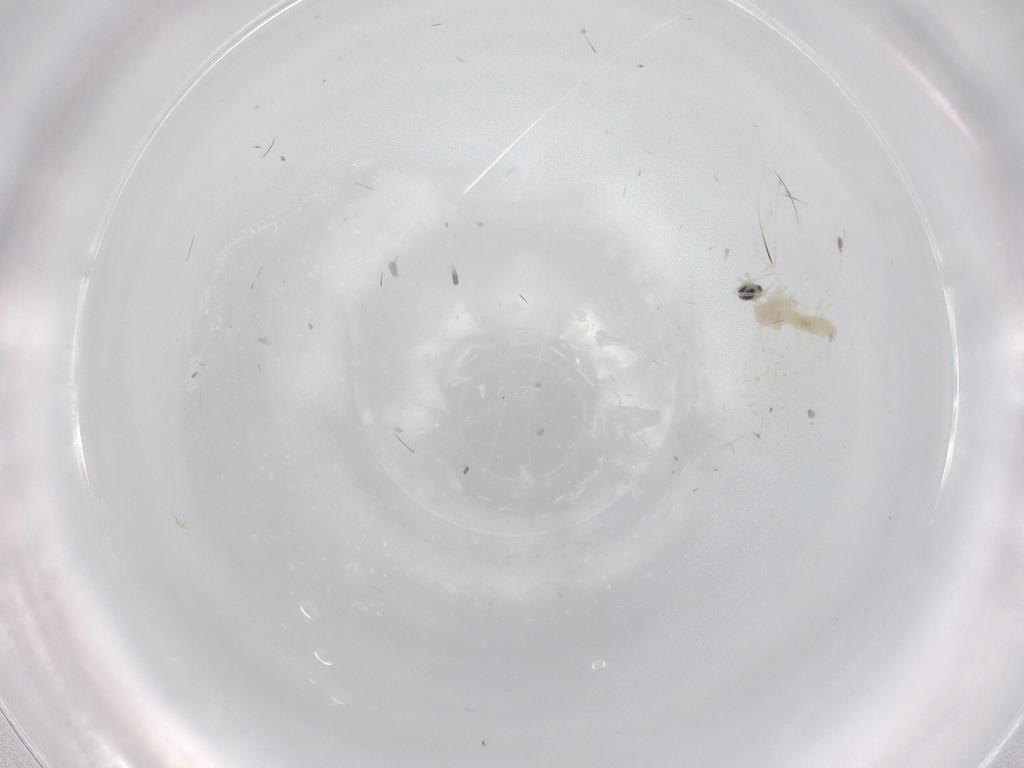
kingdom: Animalia
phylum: Arthropoda
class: Insecta
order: Diptera
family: Cecidomyiidae
